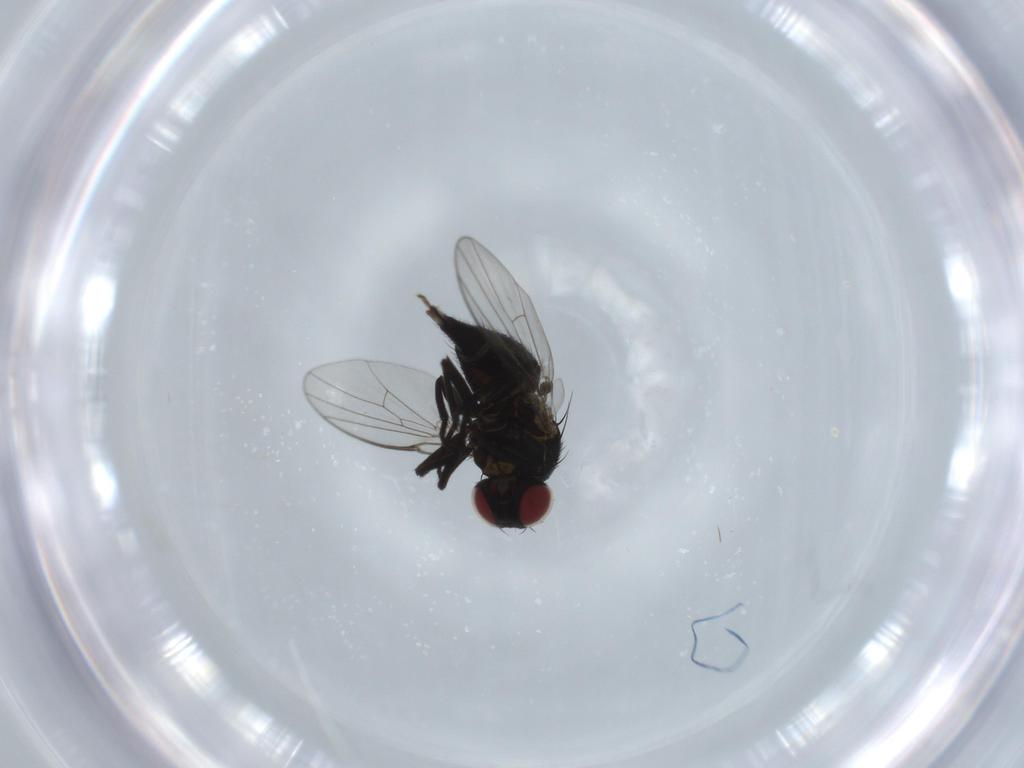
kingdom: Animalia
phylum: Arthropoda
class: Insecta
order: Diptera
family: Agromyzidae
